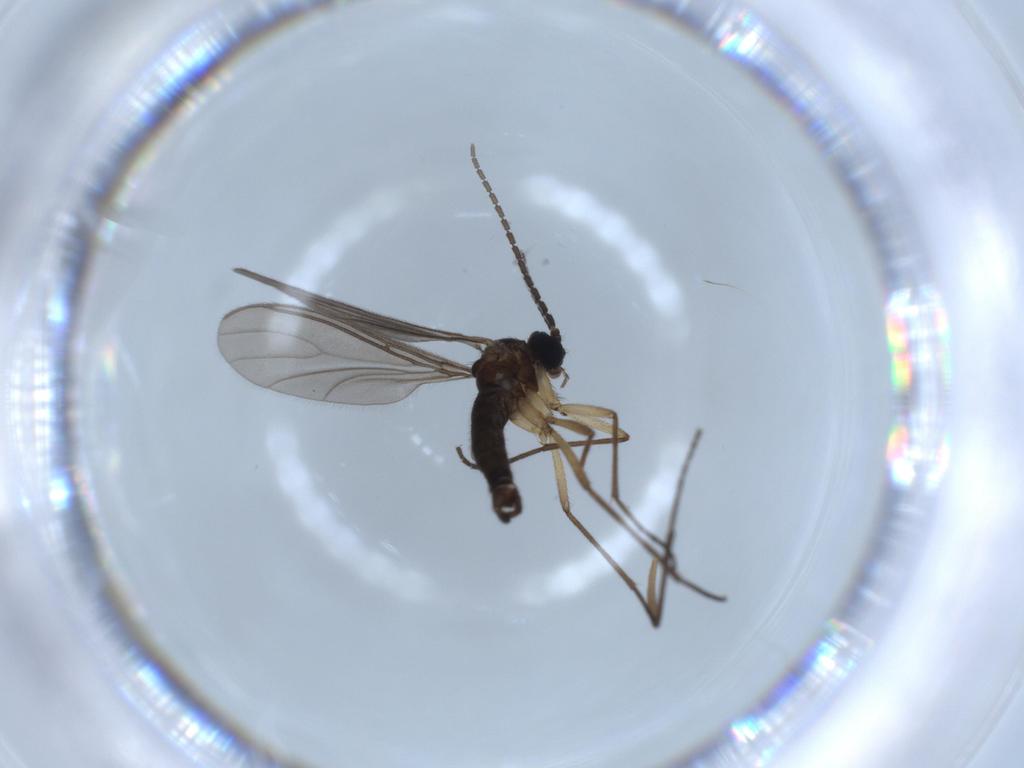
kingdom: Animalia
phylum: Arthropoda
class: Insecta
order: Diptera
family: Sciaridae
